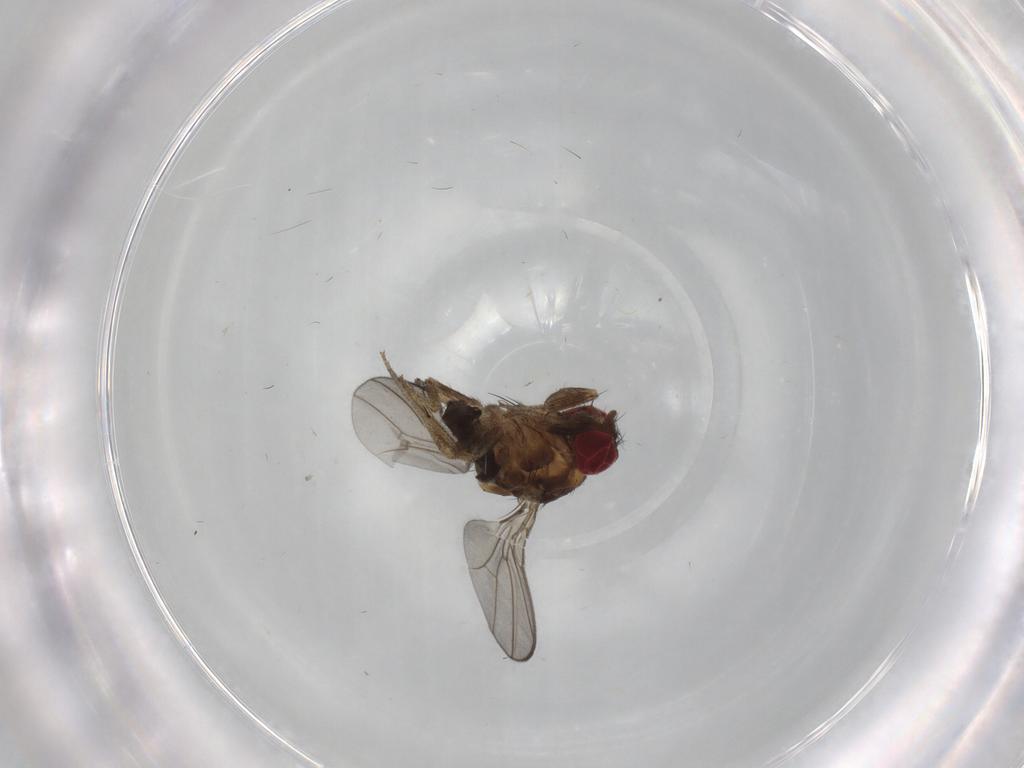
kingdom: Animalia
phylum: Arthropoda
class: Insecta
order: Diptera
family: Drosophilidae
